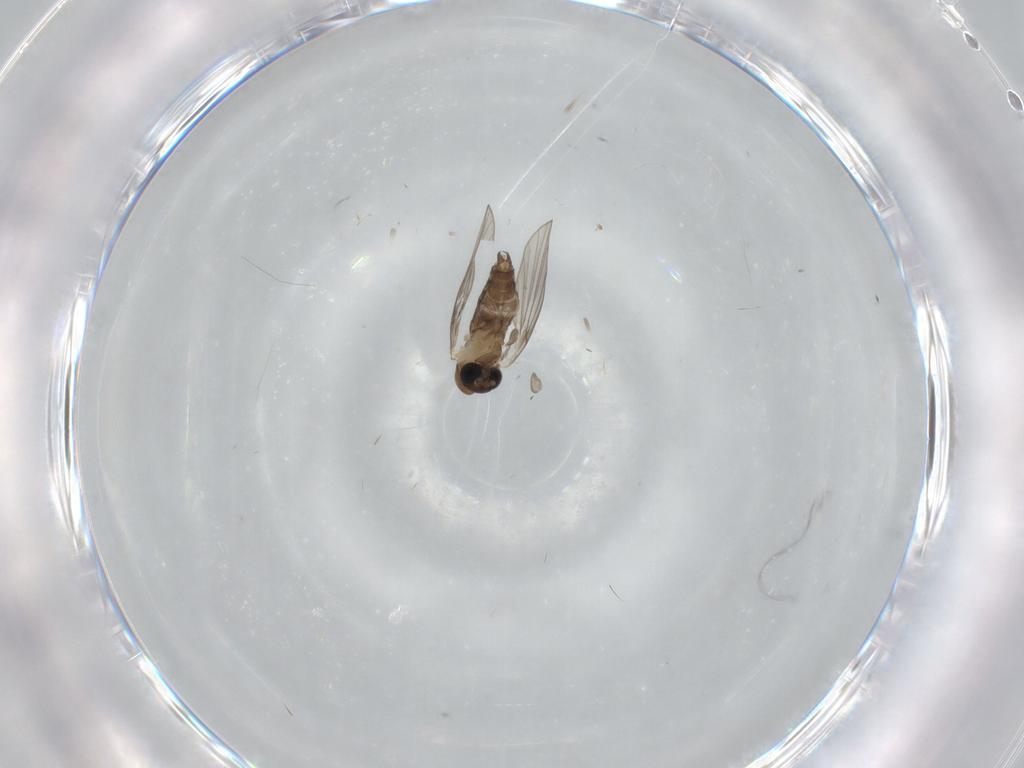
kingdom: Animalia
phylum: Arthropoda
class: Insecta
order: Diptera
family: Psychodidae
